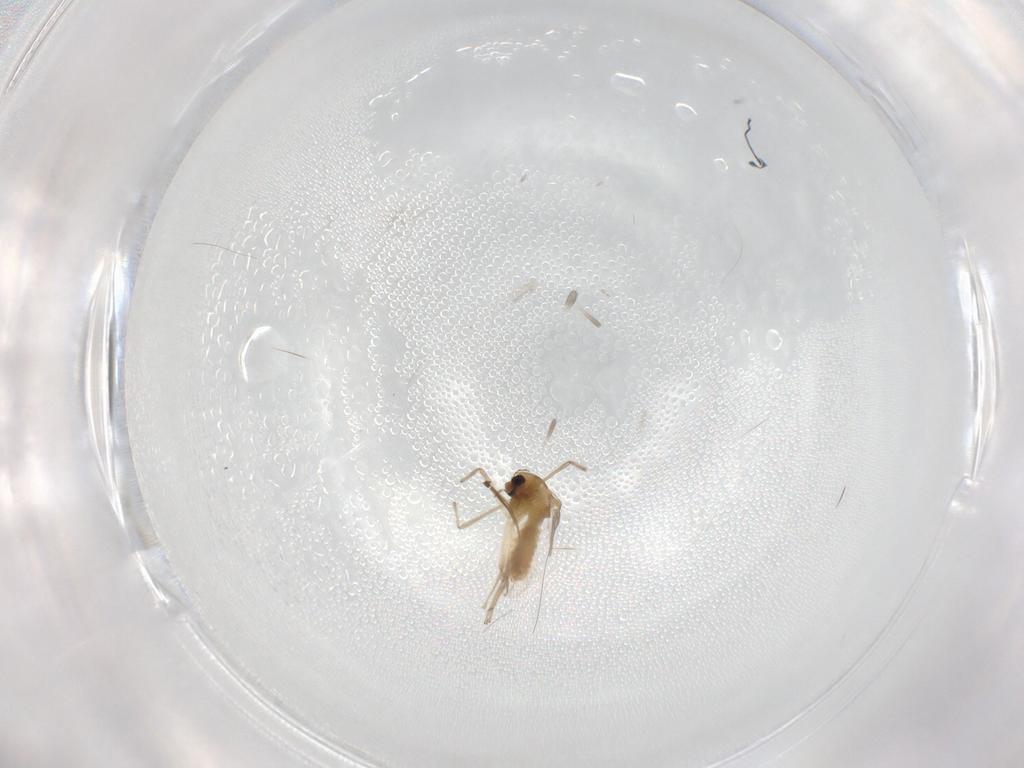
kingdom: Animalia
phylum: Arthropoda
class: Insecta
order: Diptera
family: Chironomidae
